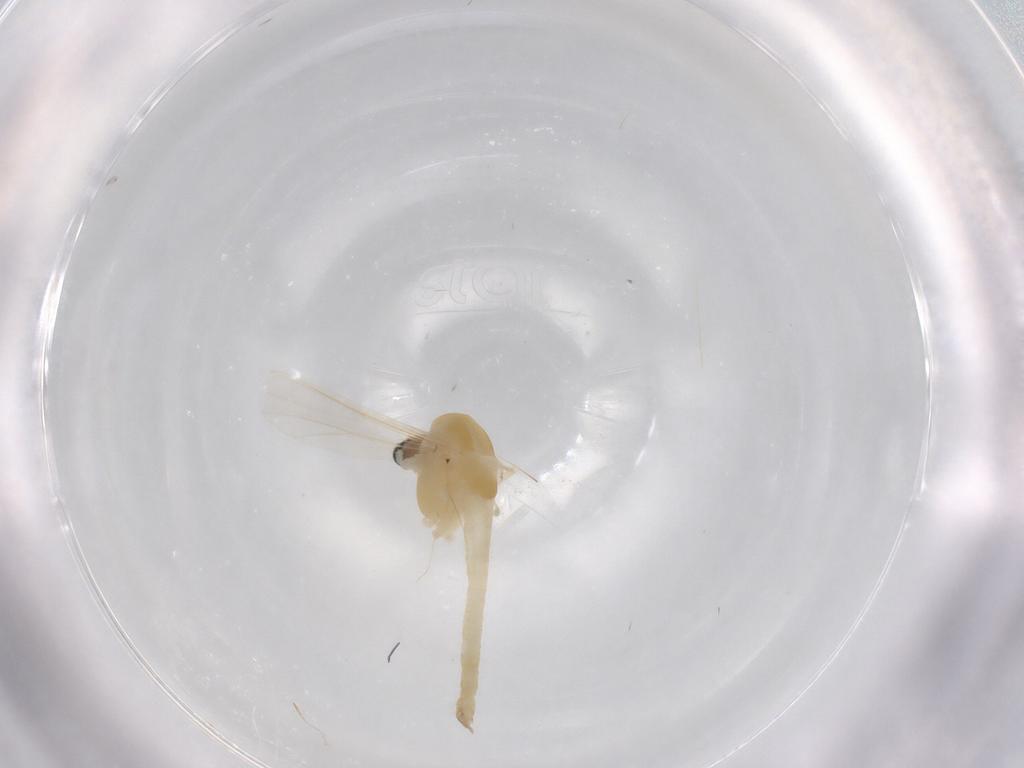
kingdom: Animalia
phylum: Arthropoda
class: Insecta
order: Diptera
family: Chironomidae
